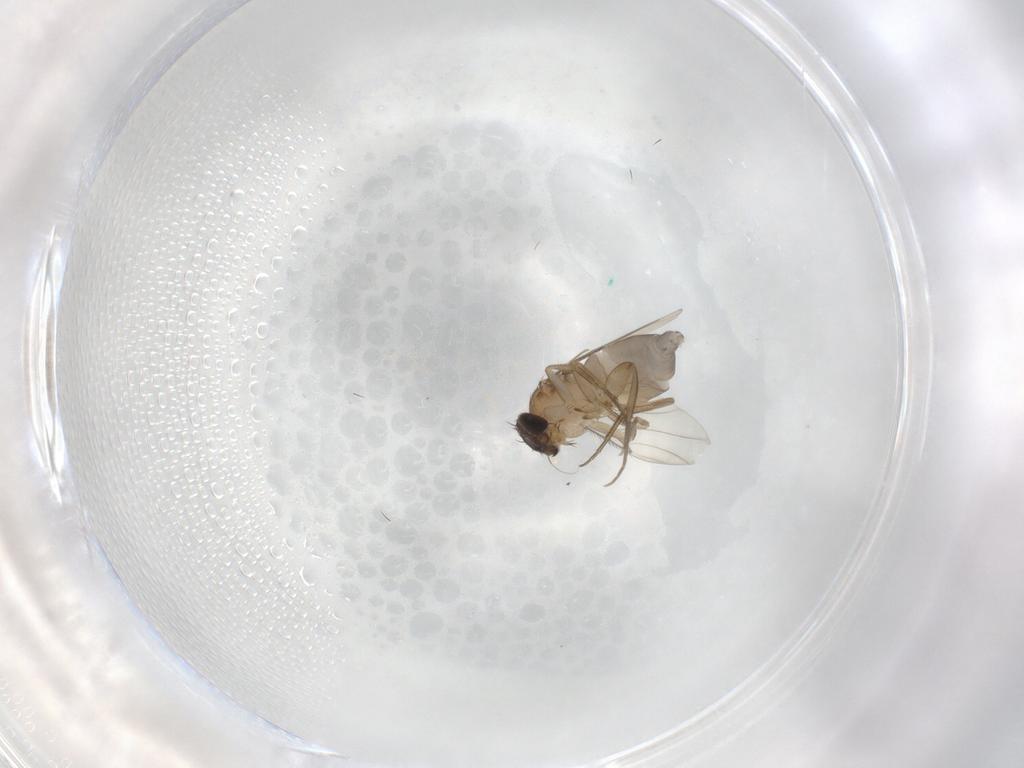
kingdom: Animalia
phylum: Arthropoda
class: Insecta
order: Diptera
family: Phoridae
